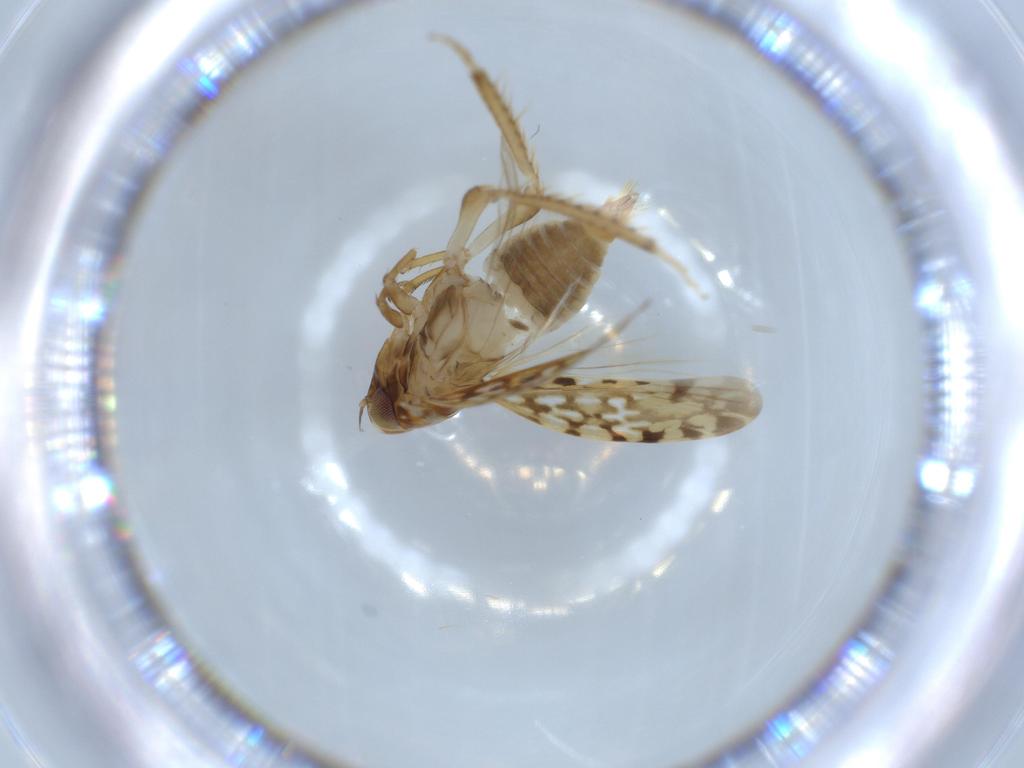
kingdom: Animalia
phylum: Arthropoda
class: Insecta
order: Hemiptera
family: Cicadellidae
